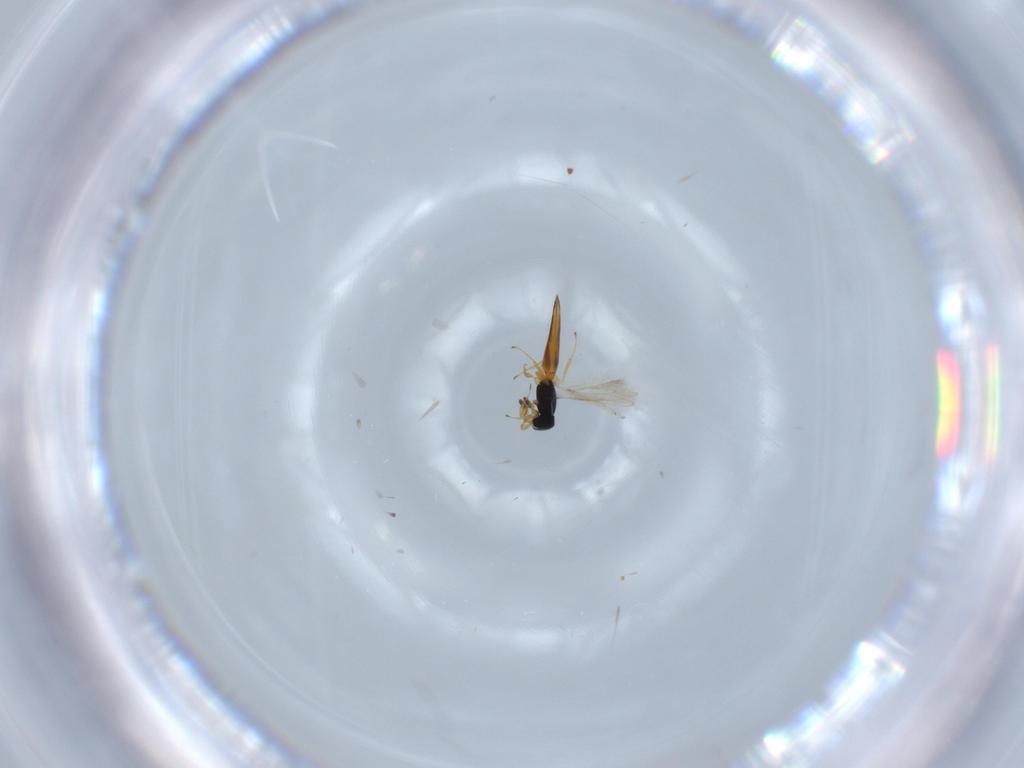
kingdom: Animalia
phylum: Arthropoda
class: Insecta
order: Hymenoptera
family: Scelionidae
